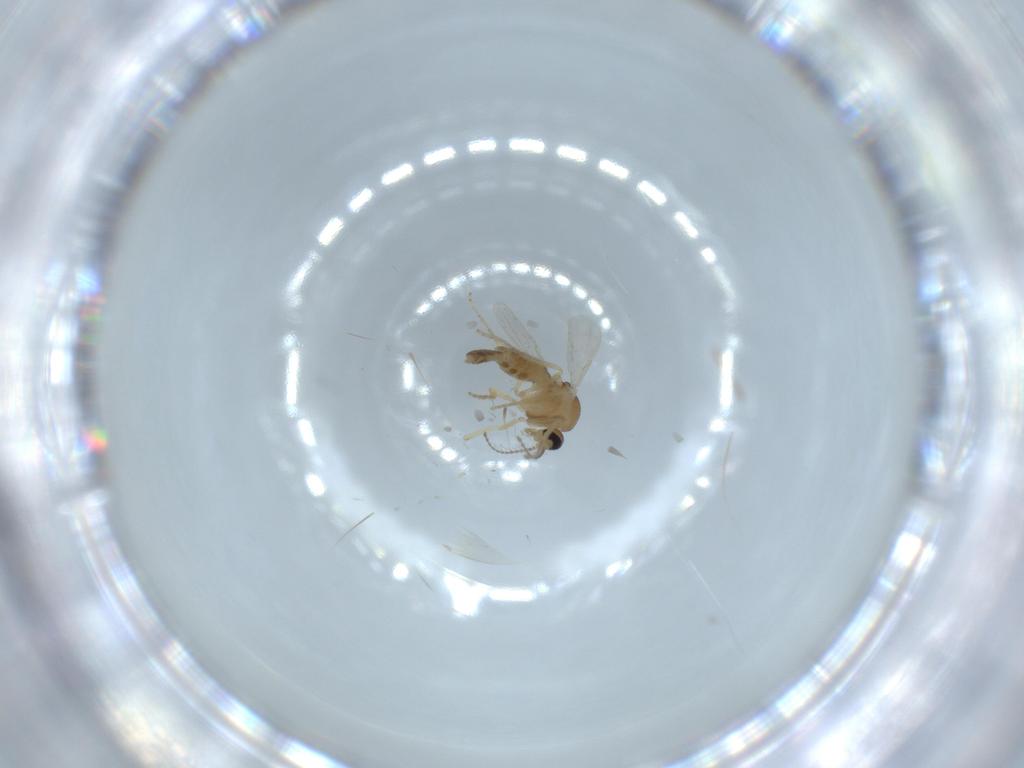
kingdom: Animalia
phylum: Arthropoda
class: Insecta
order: Diptera
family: Ceratopogonidae
